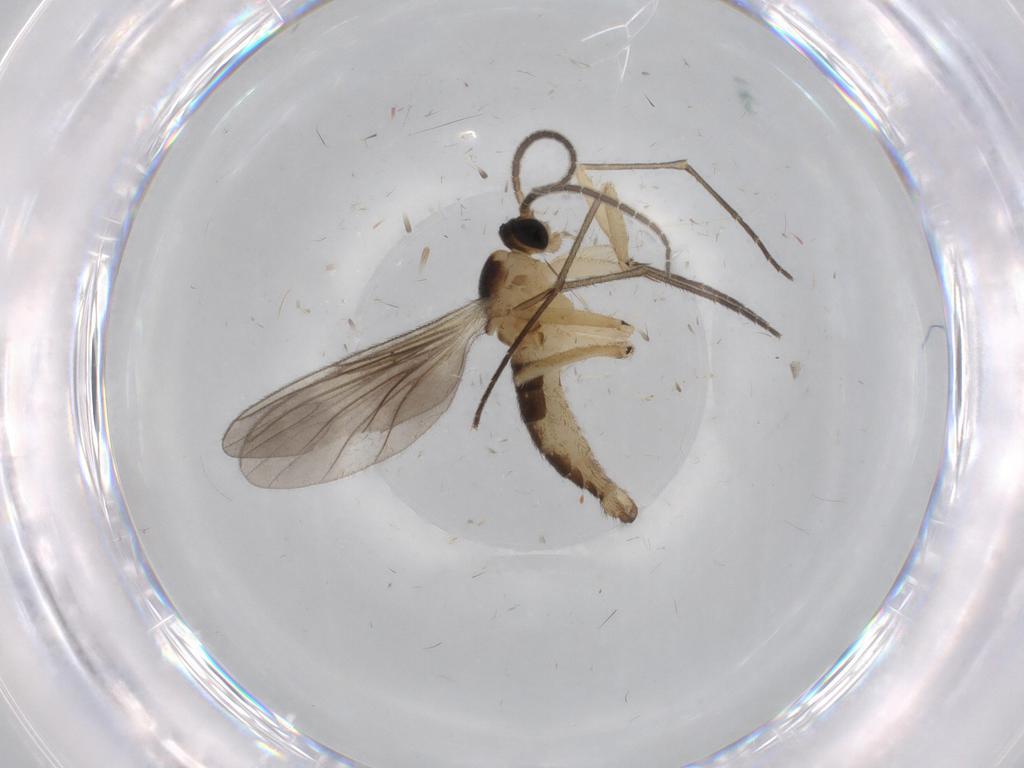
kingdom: Animalia
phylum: Arthropoda
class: Insecta
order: Diptera
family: Sciaridae
